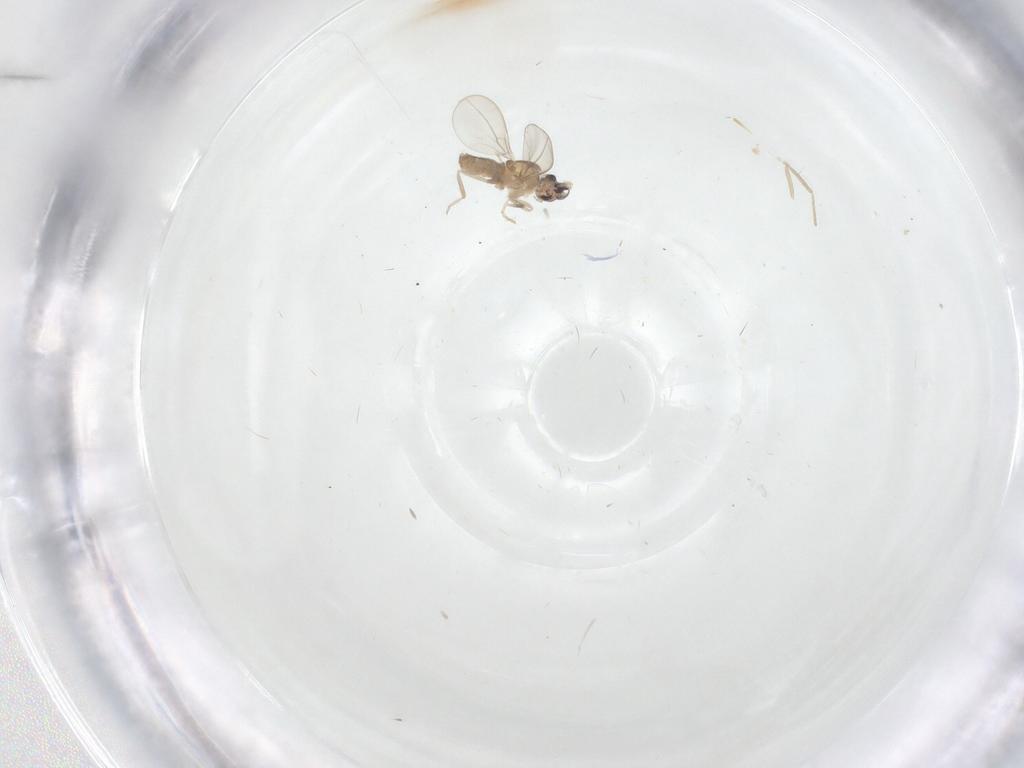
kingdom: Animalia
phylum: Arthropoda
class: Insecta
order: Diptera
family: Cecidomyiidae
